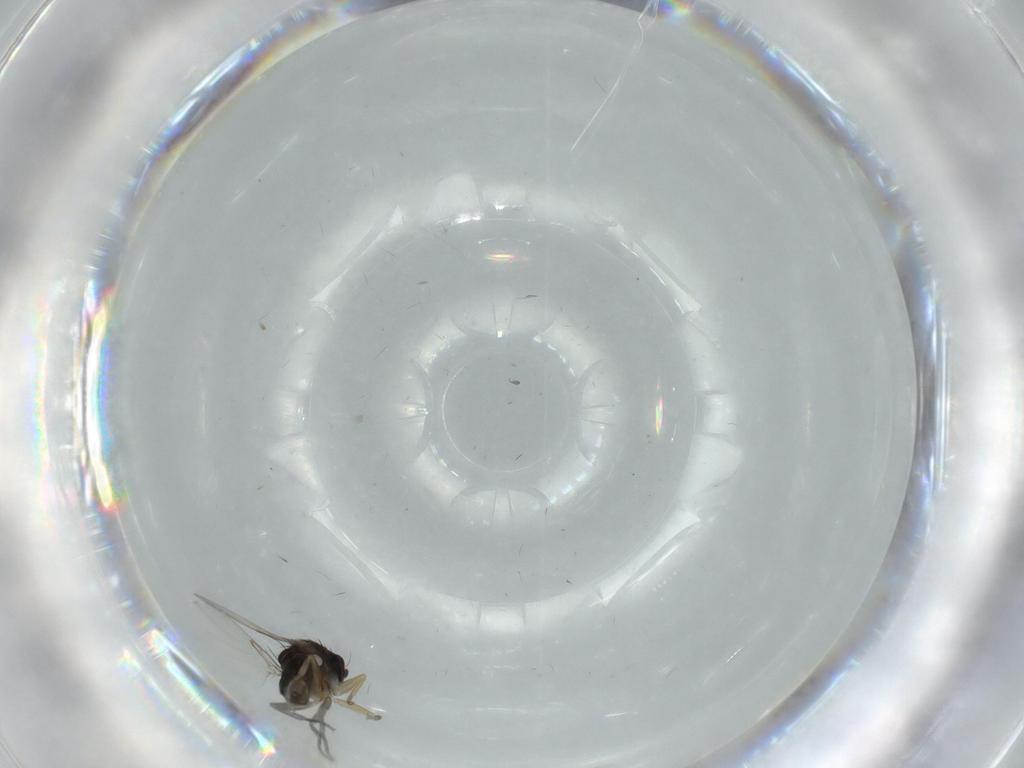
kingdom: Animalia
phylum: Arthropoda
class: Insecta
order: Diptera
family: Phoridae
